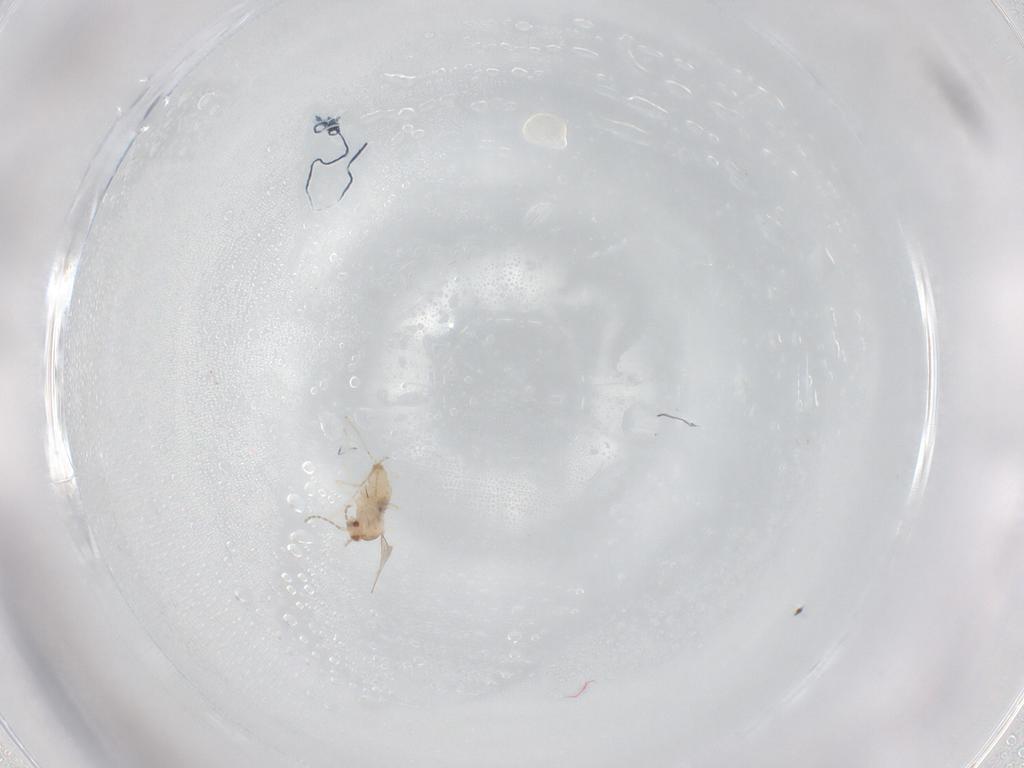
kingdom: Animalia
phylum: Arthropoda
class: Insecta
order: Diptera
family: Cecidomyiidae
